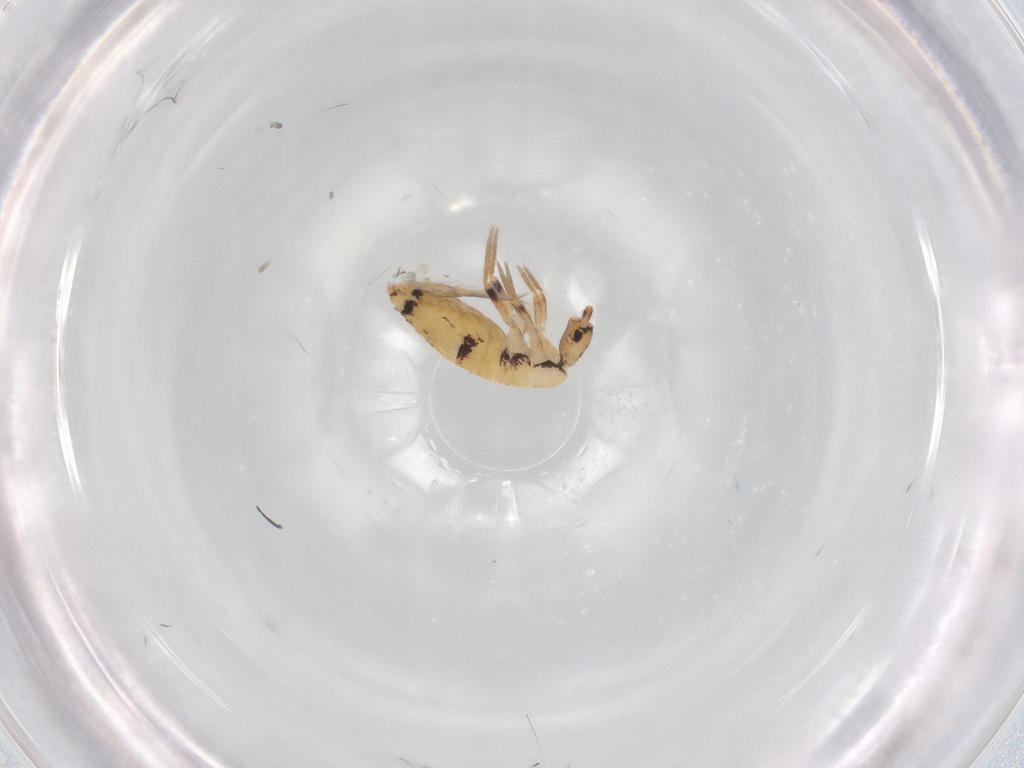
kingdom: Animalia
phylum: Arthropoda
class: Collembola
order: Entomobryomorpha
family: Entomobryidae
